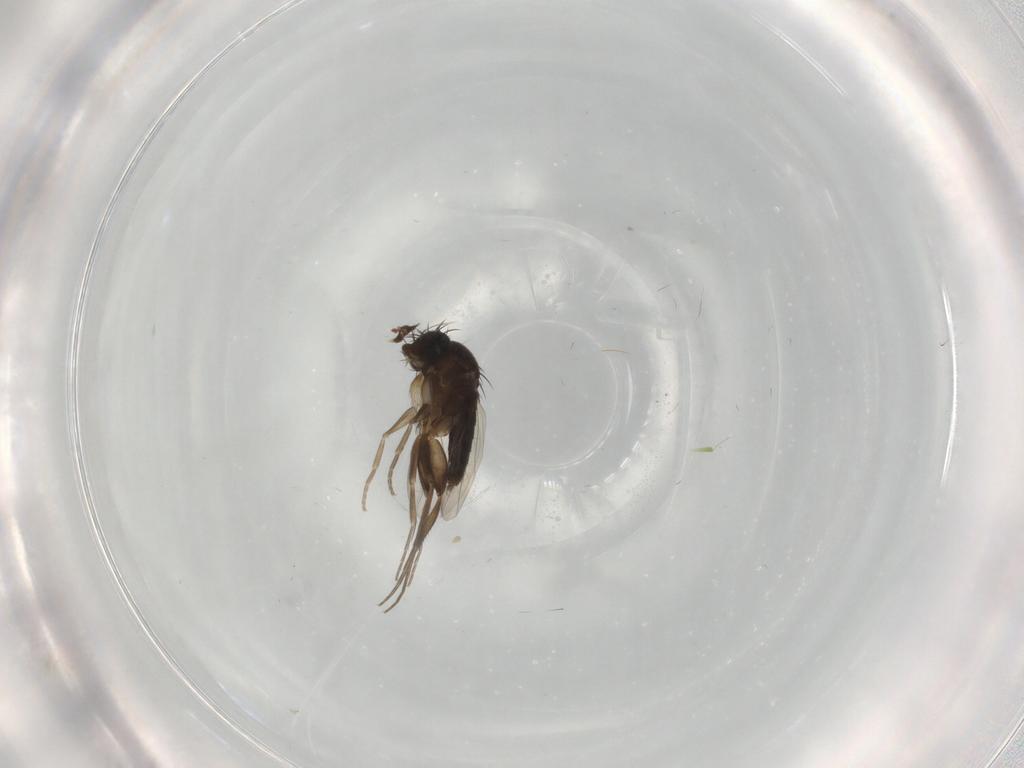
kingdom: Animalia
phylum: Arthropoda
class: Insecta
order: Diptera
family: Phoridae
